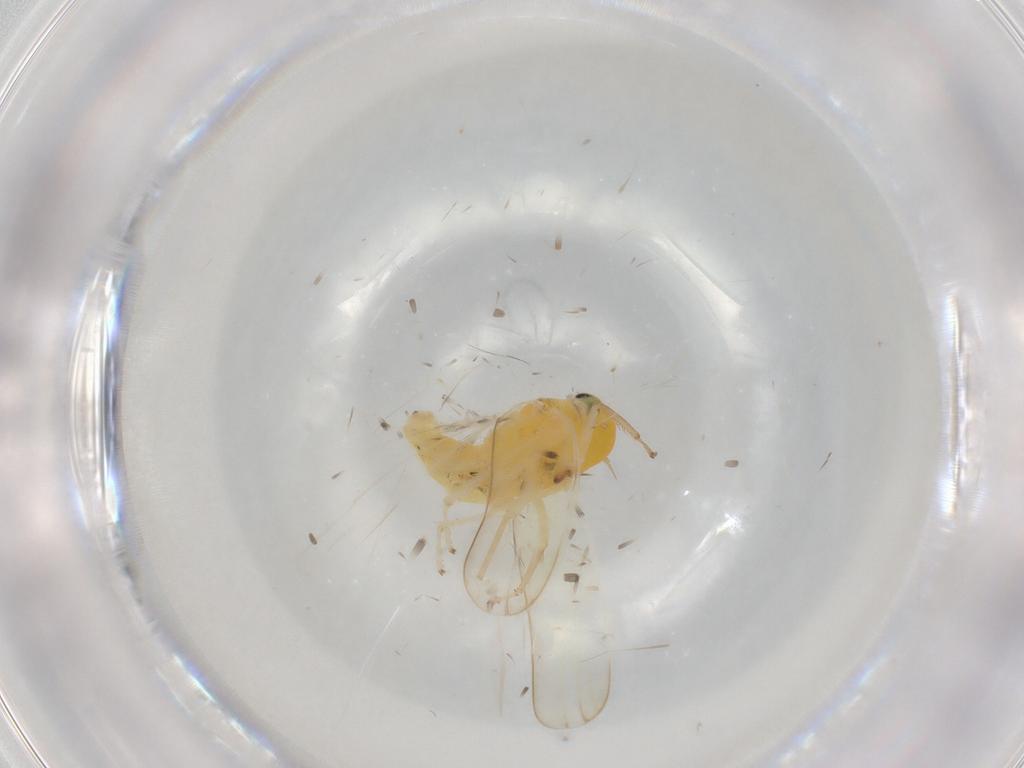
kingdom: Animalia
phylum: Arthropoda
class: Insecta
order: Hemiptera
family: Cicadellidae
